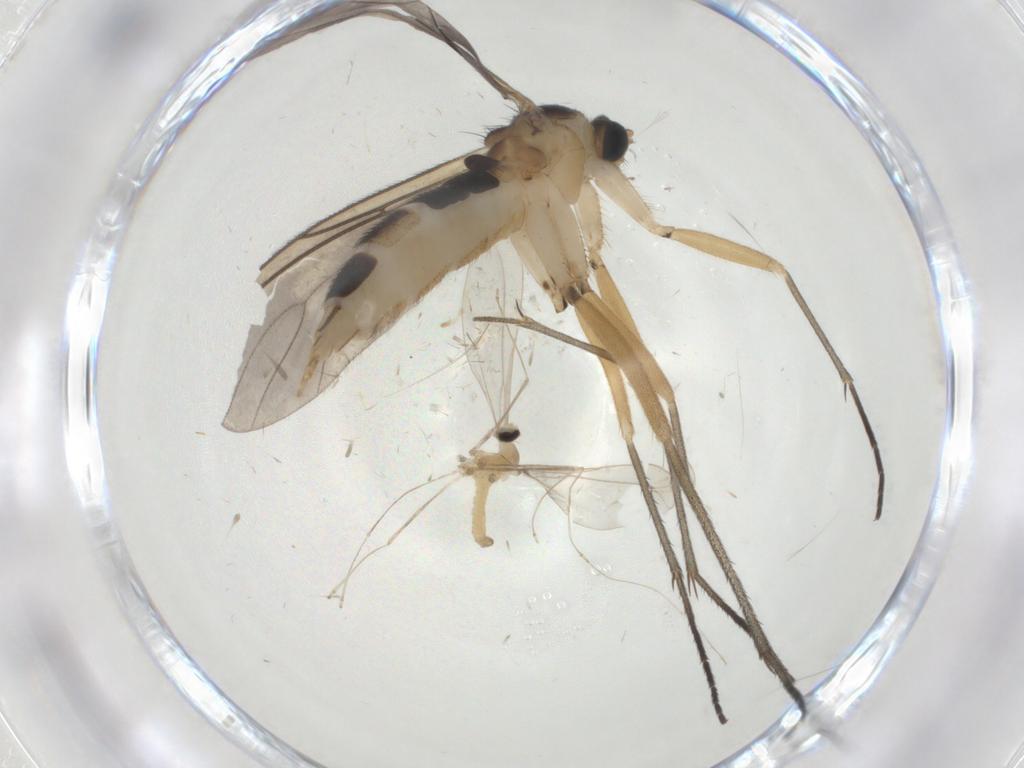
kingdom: Animalia
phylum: Arthropoda
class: Insecta
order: Diptera
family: Sciaridae
